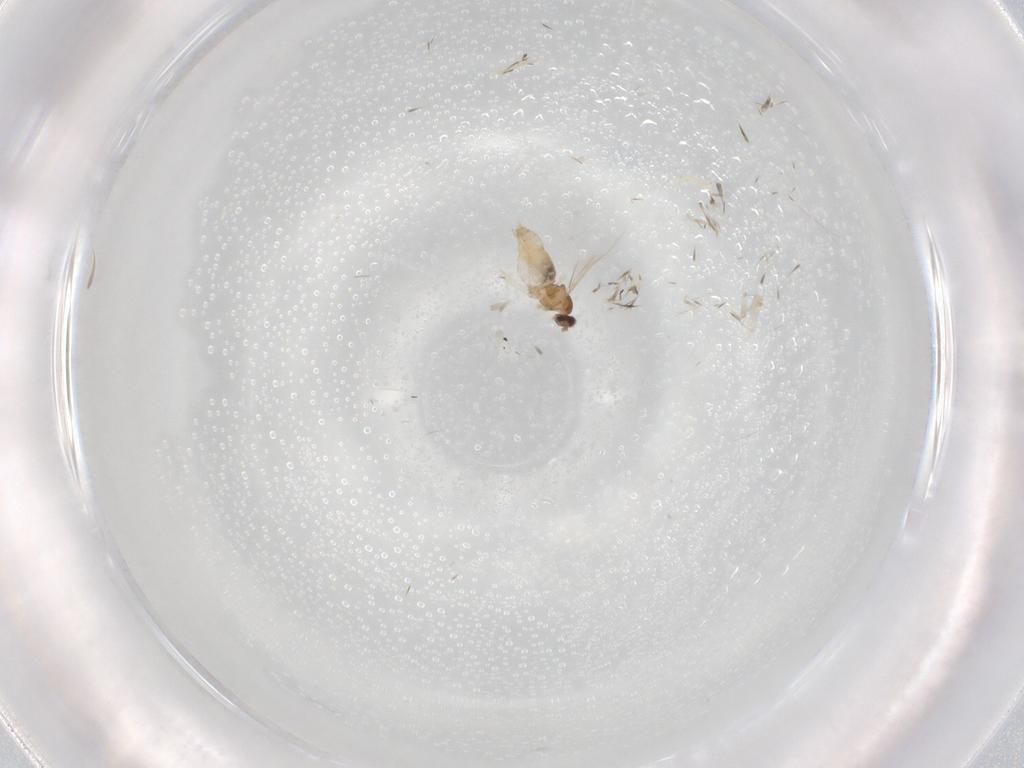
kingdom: Animalia
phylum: Arthropoda
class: Insecta
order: Diptera
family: Cecidomyiidae
